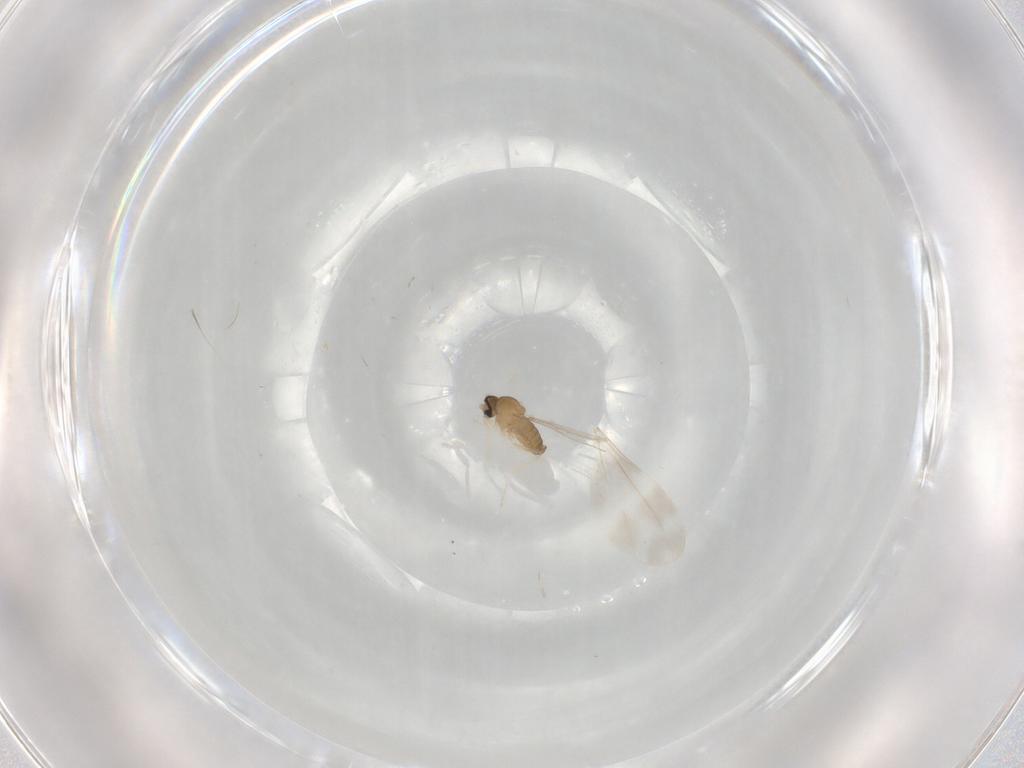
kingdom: Animalia
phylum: Arthropoda
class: Insecta
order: Diptera
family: Cecidomyiidae
